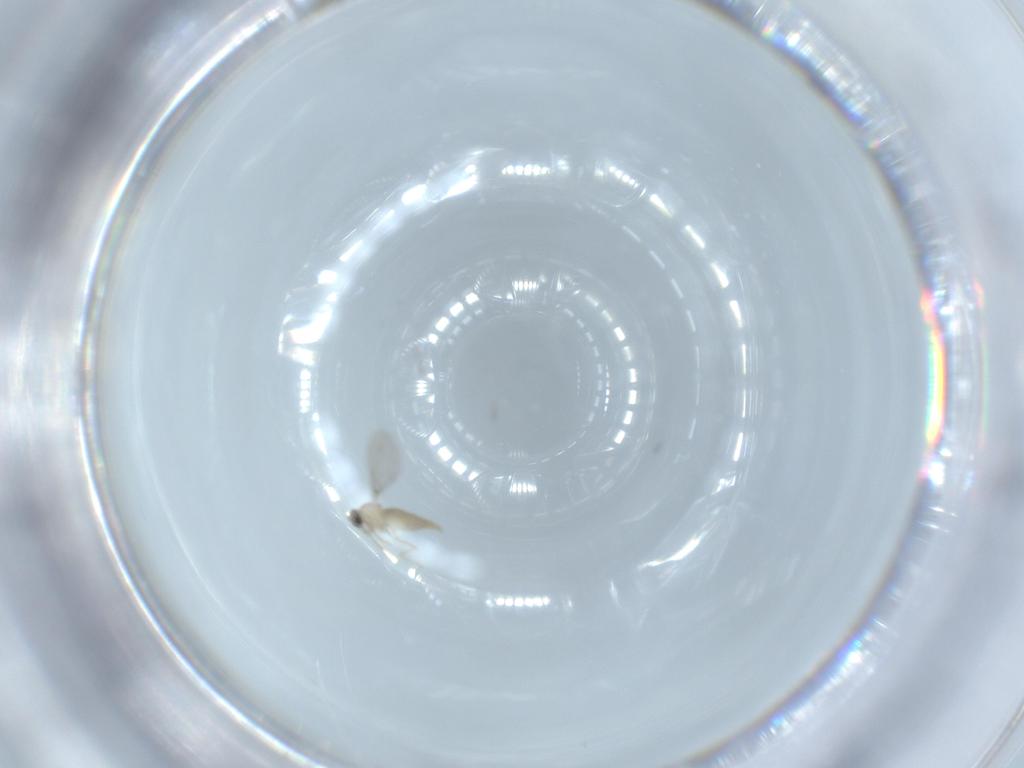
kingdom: Animalia
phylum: Arthropoda
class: Insecta
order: Diptera
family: Cecidomyiidae
